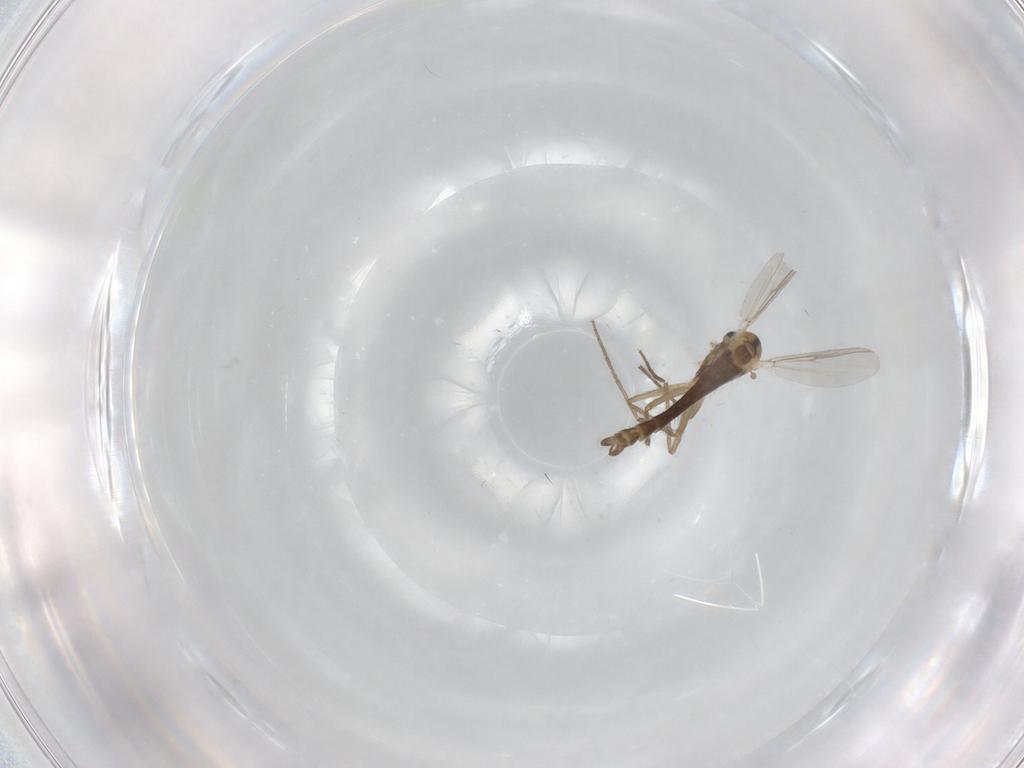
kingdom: Animalia
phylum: Arthropoda
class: Insecta
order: Diptera
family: Chironomidae
